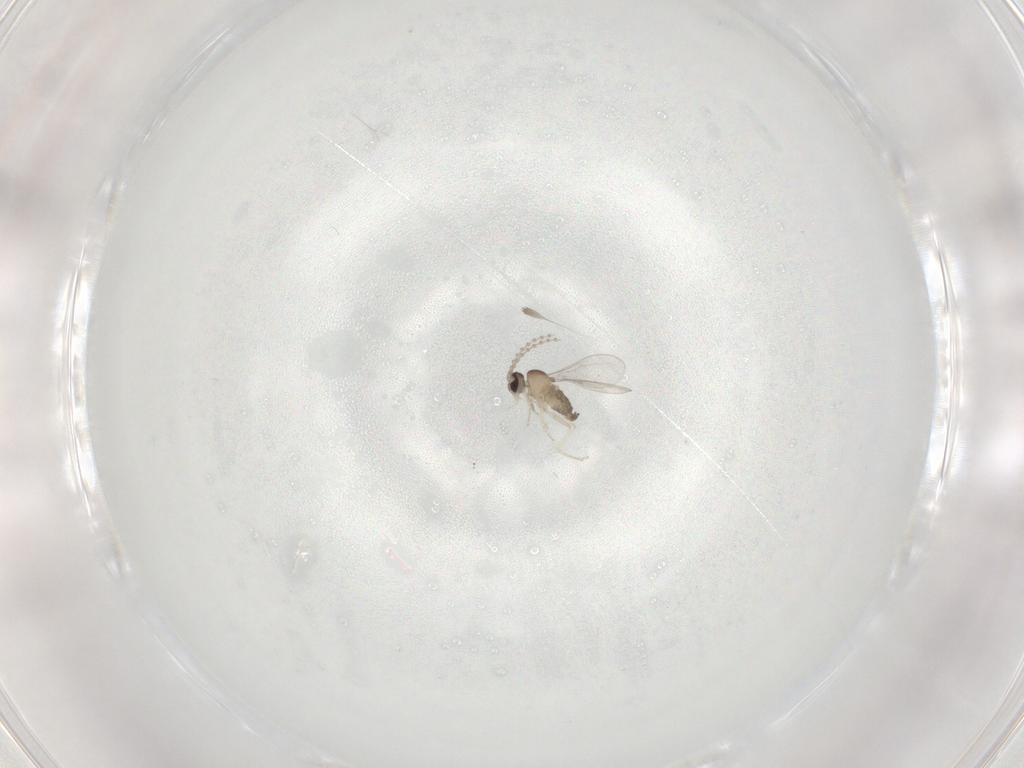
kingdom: Animalia
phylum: Arthropoda
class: Insecta
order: Diptera
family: Cecidomyiidae
